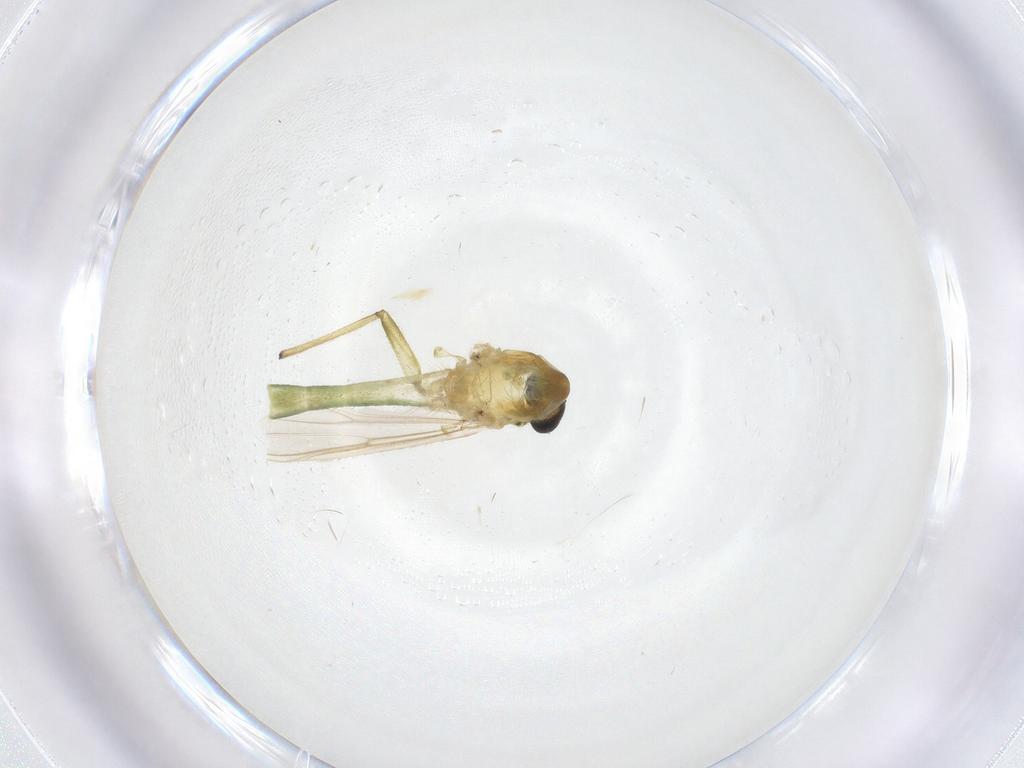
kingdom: Animalia
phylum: Arthropoda
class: Insecta
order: Diptera
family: Chironomidae
